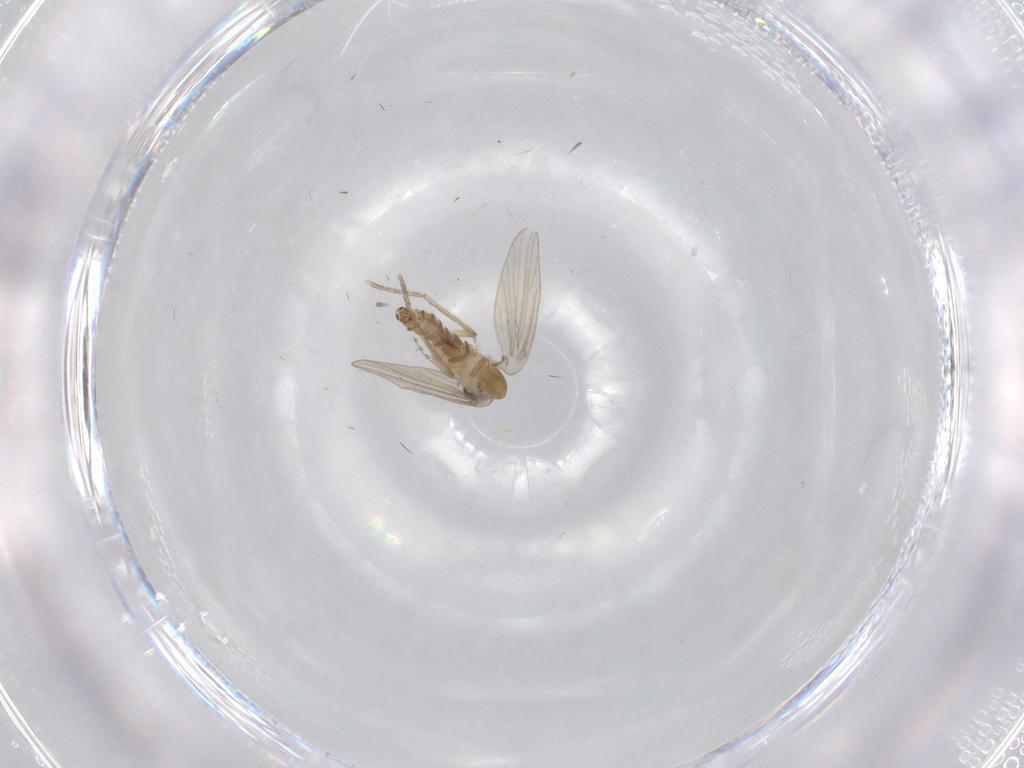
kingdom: Animalia
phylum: Arthropoda
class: Insecta
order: Diptera
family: Psychodidae
